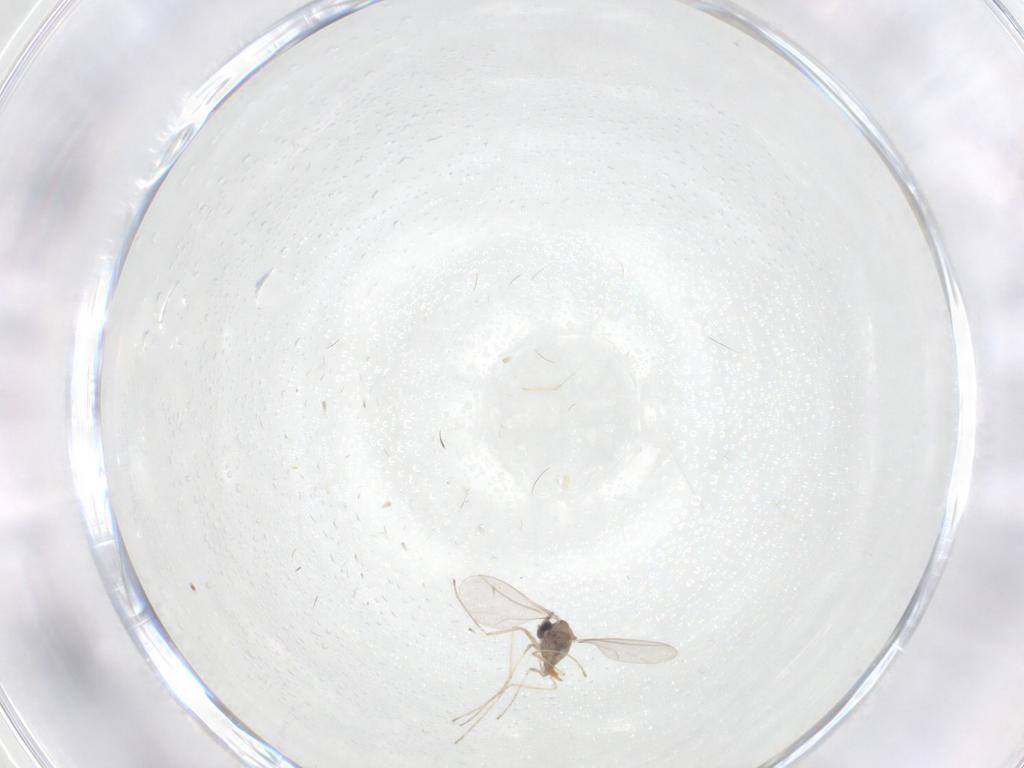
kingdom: Animalia
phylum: Arthropoda
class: Insecta
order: Diptera
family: Cecidomyiidae
